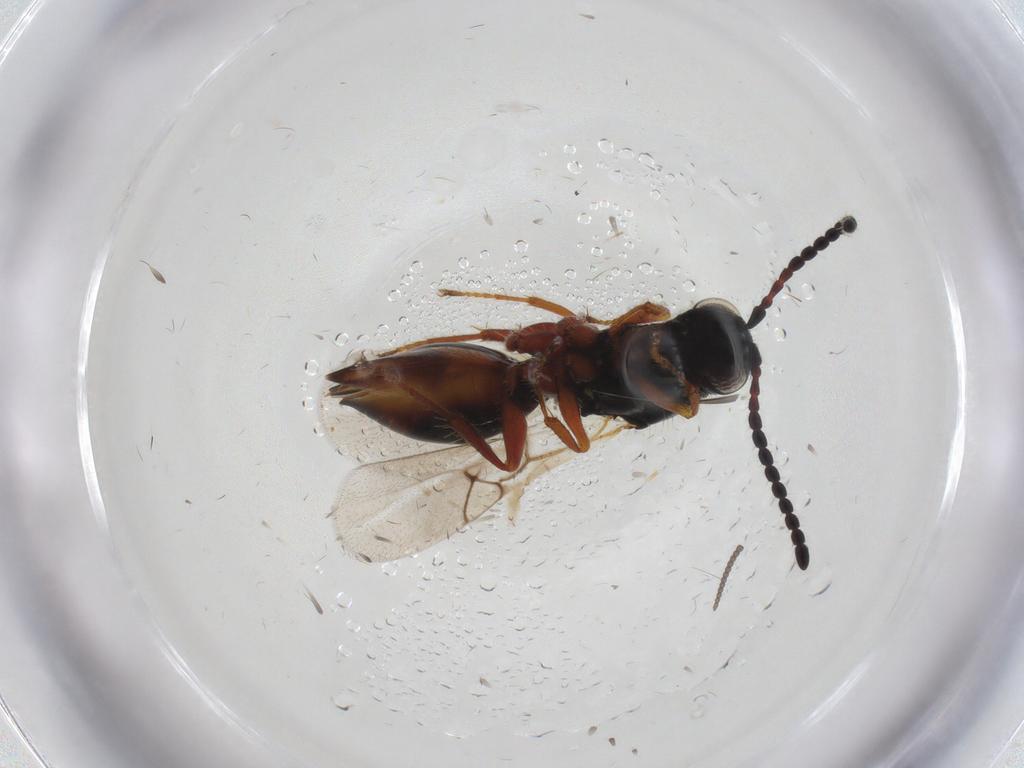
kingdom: Animalia
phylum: Arthropoda
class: Insecta
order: Hymenoptera
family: Figitidae
